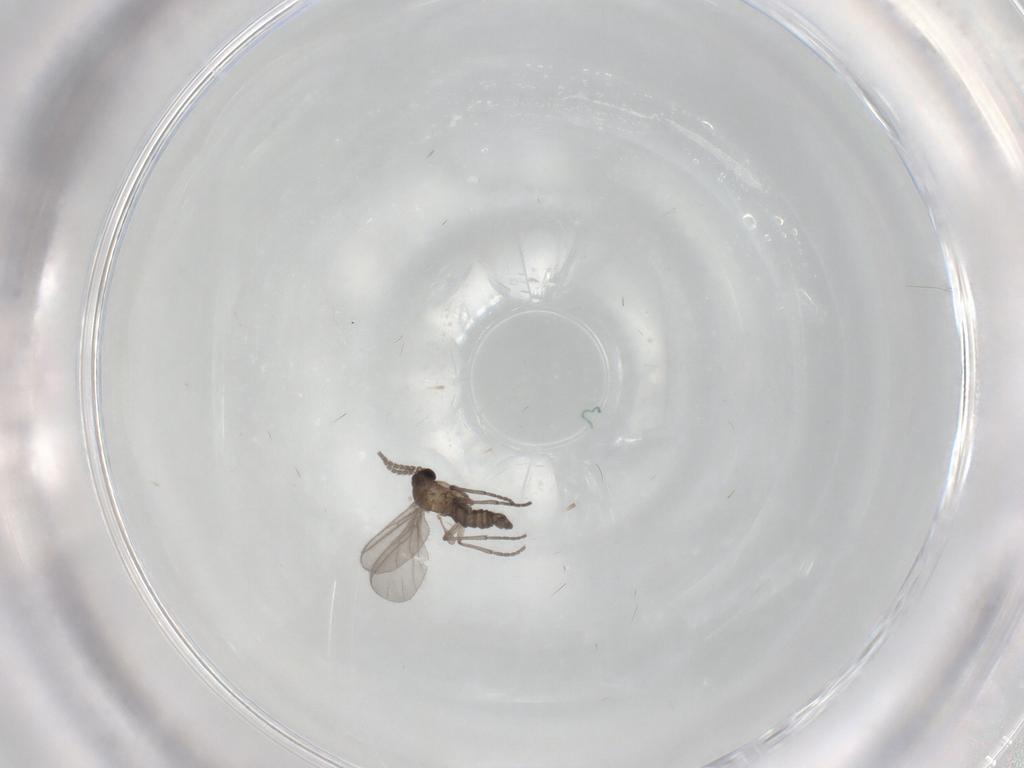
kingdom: Animalia
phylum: Arthropoda
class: Insecta
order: Diptera
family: Sciaridae
